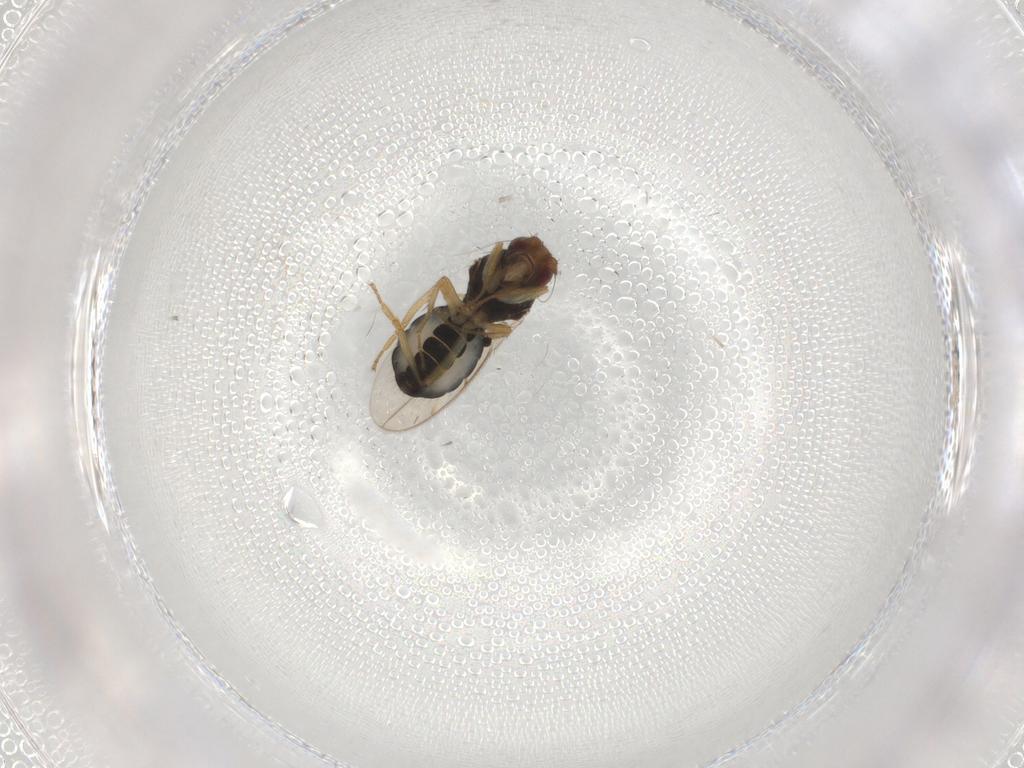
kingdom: Animalia
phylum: Arthropoda
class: Insecta
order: Diptera
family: Sphaeroceridae
